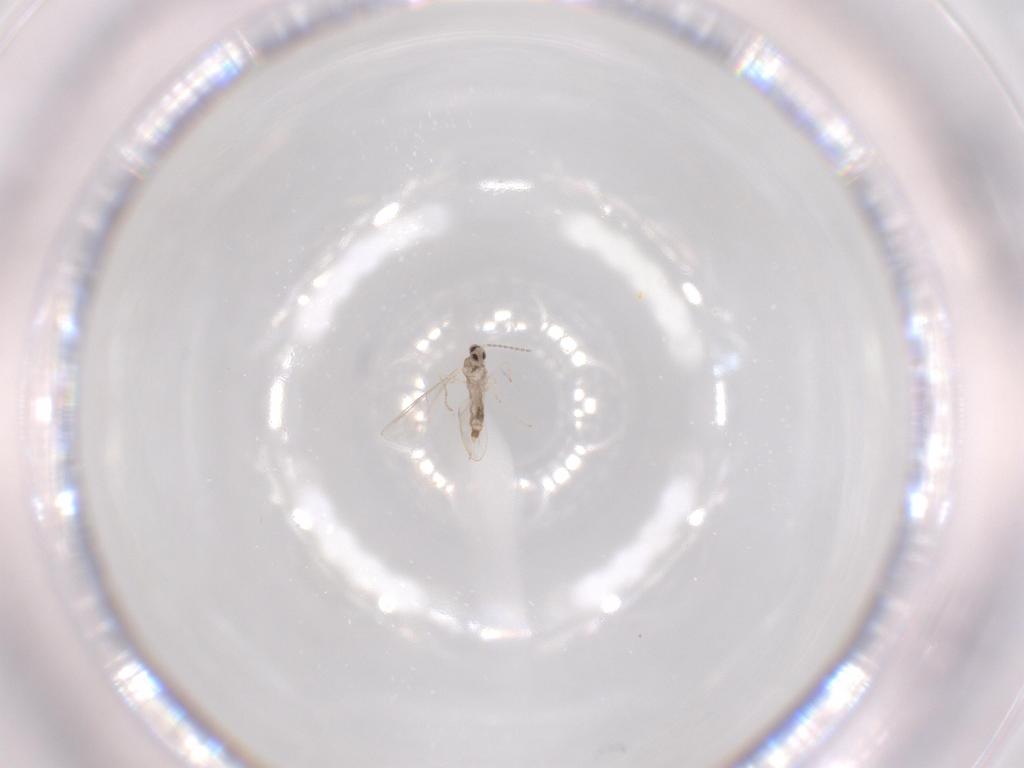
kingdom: Animalia
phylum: Arthropoda
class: Insecta
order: Diptera
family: Cecidomyiidae
